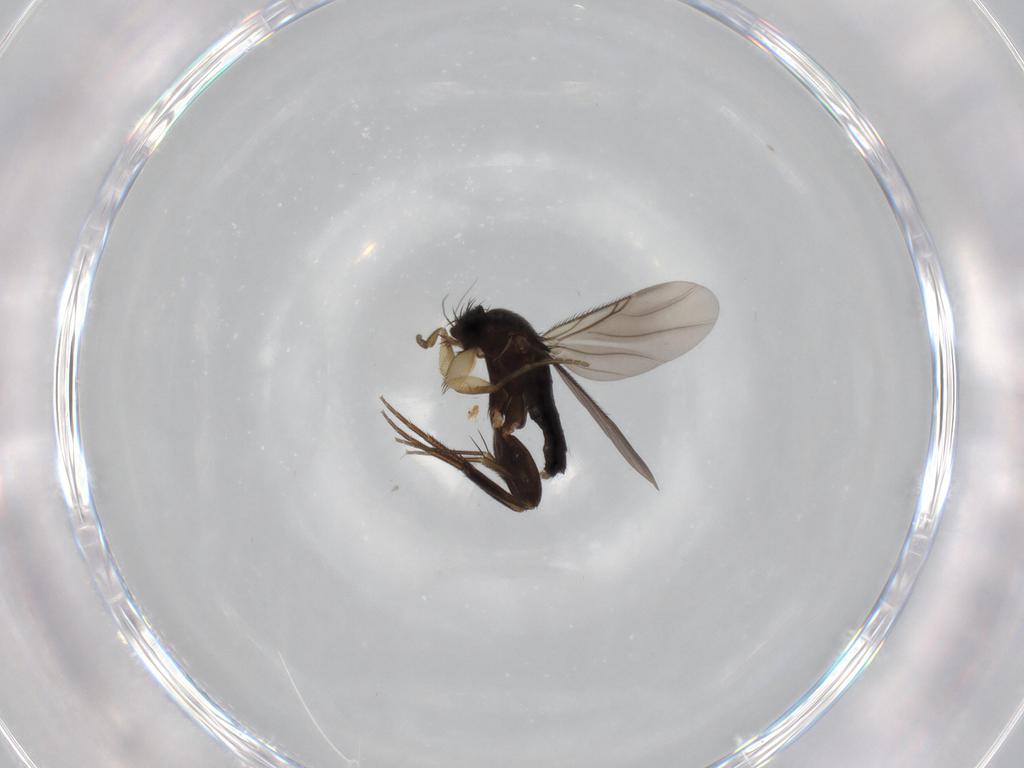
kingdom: Animalia
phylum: Arthropoda
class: Insecta
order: Diptera
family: Phoridae
